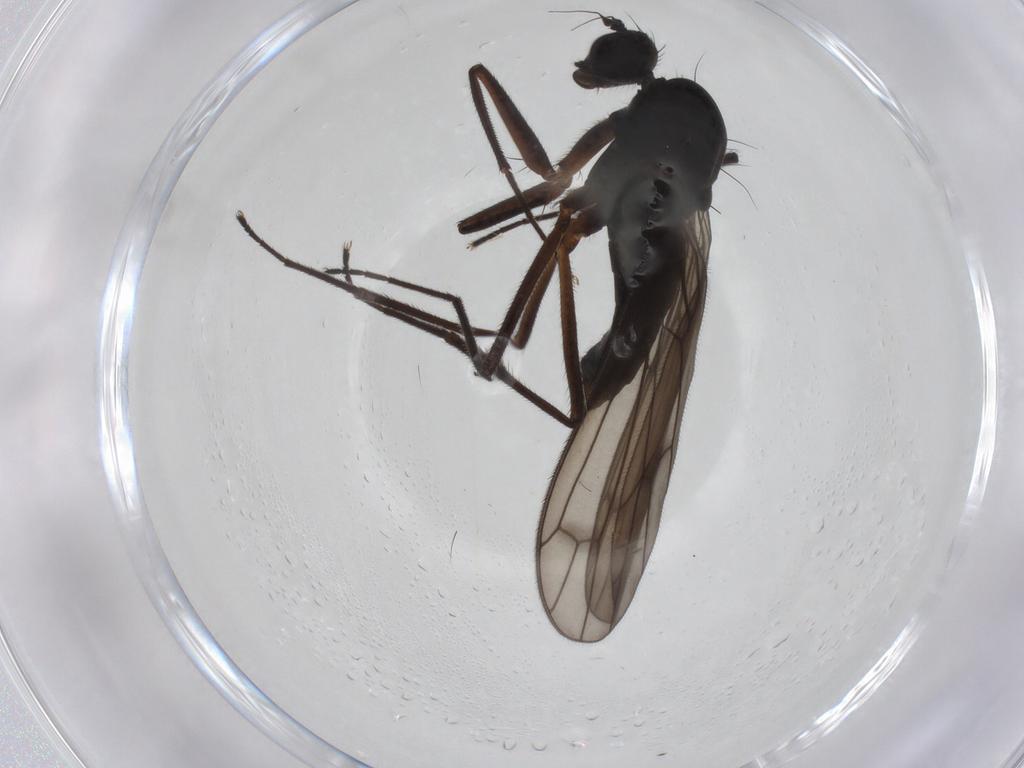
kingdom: Animalia
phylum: Arthropoda
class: Insecta
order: Diptera
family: Empididae
